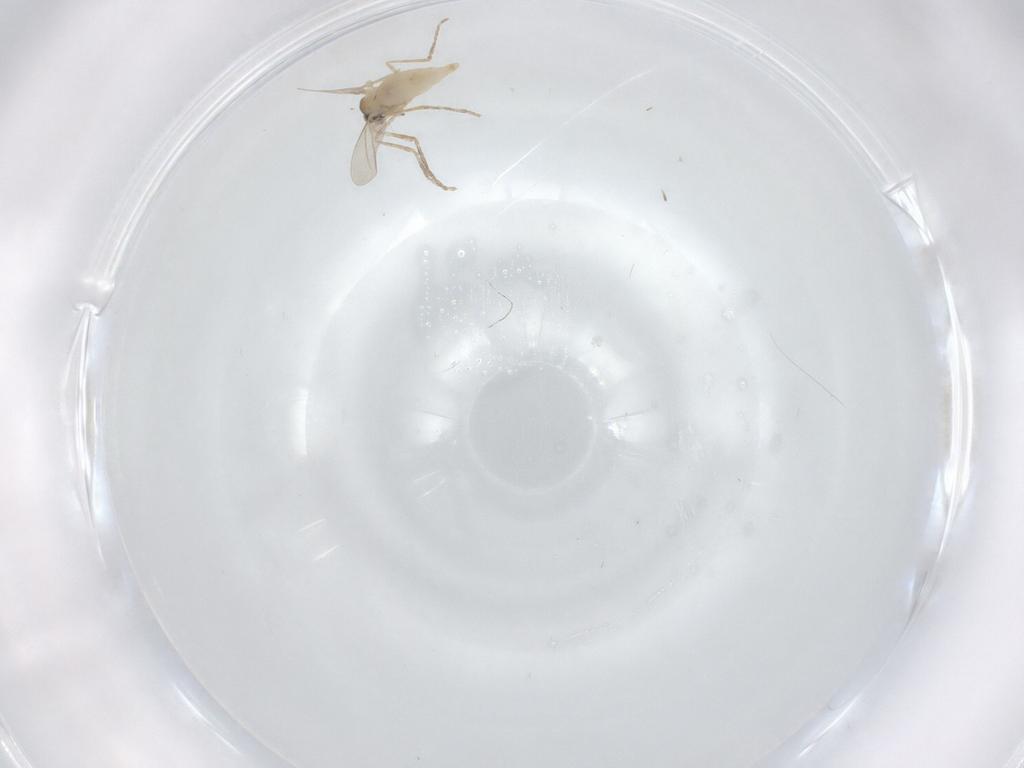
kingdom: Animalia
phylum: Arthropoda
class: Insecta
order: Diptera
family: Cecidomyiidae
